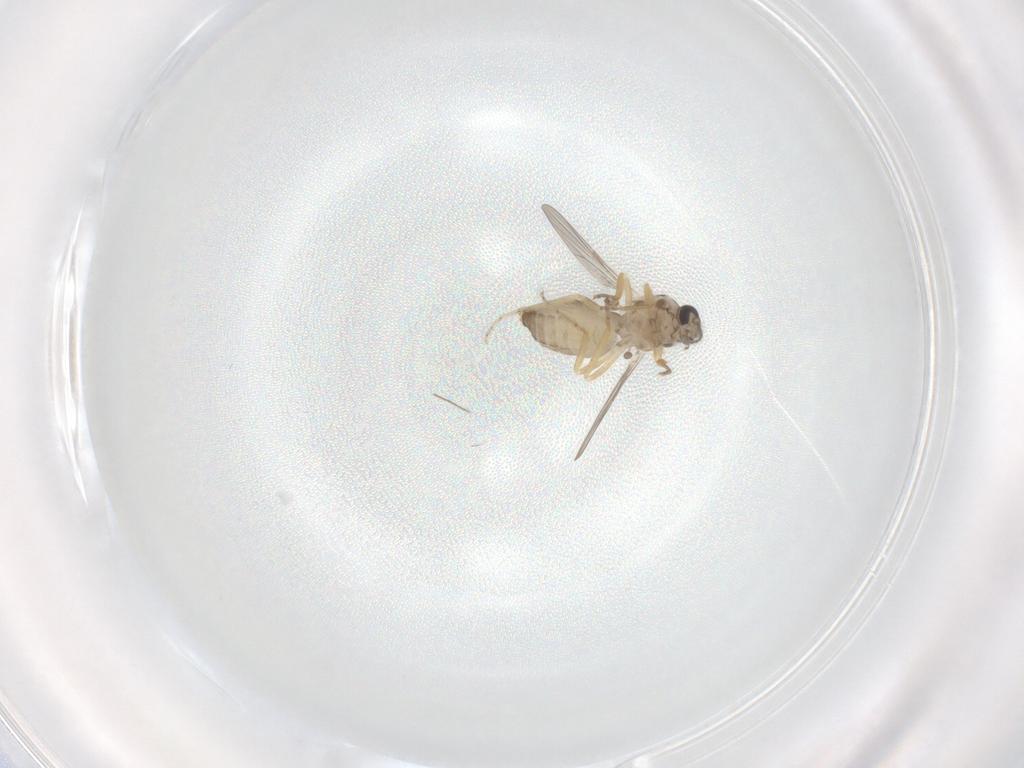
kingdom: Animalia
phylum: Arthropoda
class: Insecta
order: Diptera
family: Ceratopogonidae
